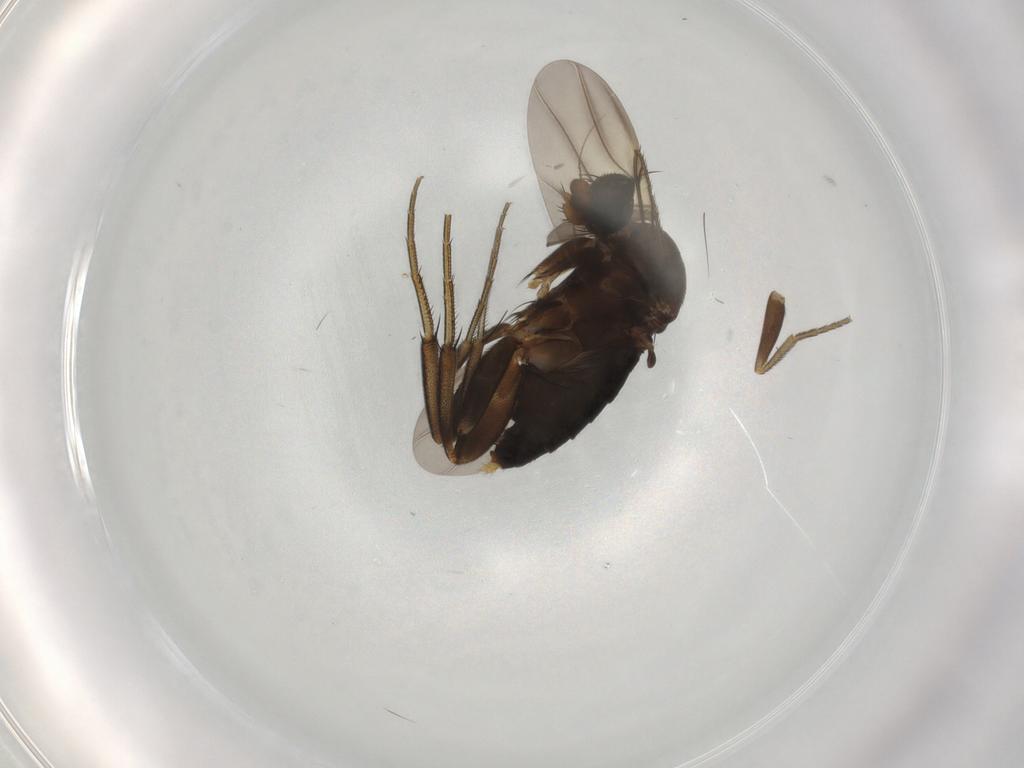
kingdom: Animalia
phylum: Arthropoda
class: Insecta
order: Diptera
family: Phoridae
